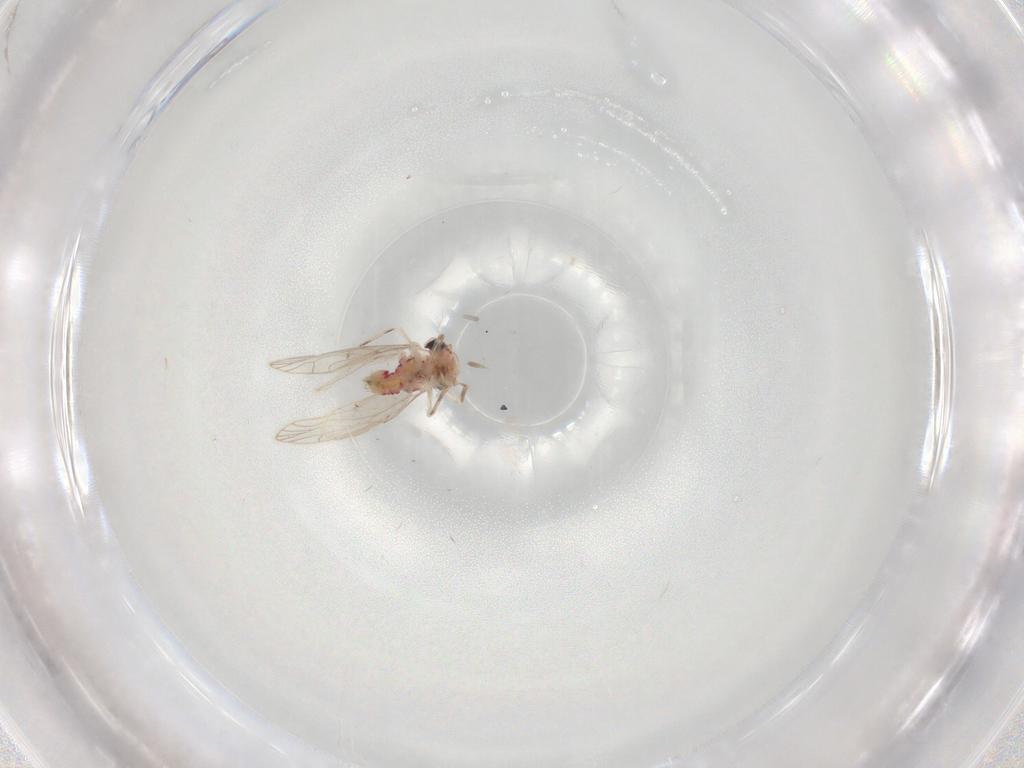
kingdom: Animalia
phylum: Arthropoda
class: Insecta
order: Psocodea
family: Caeciliusidae
